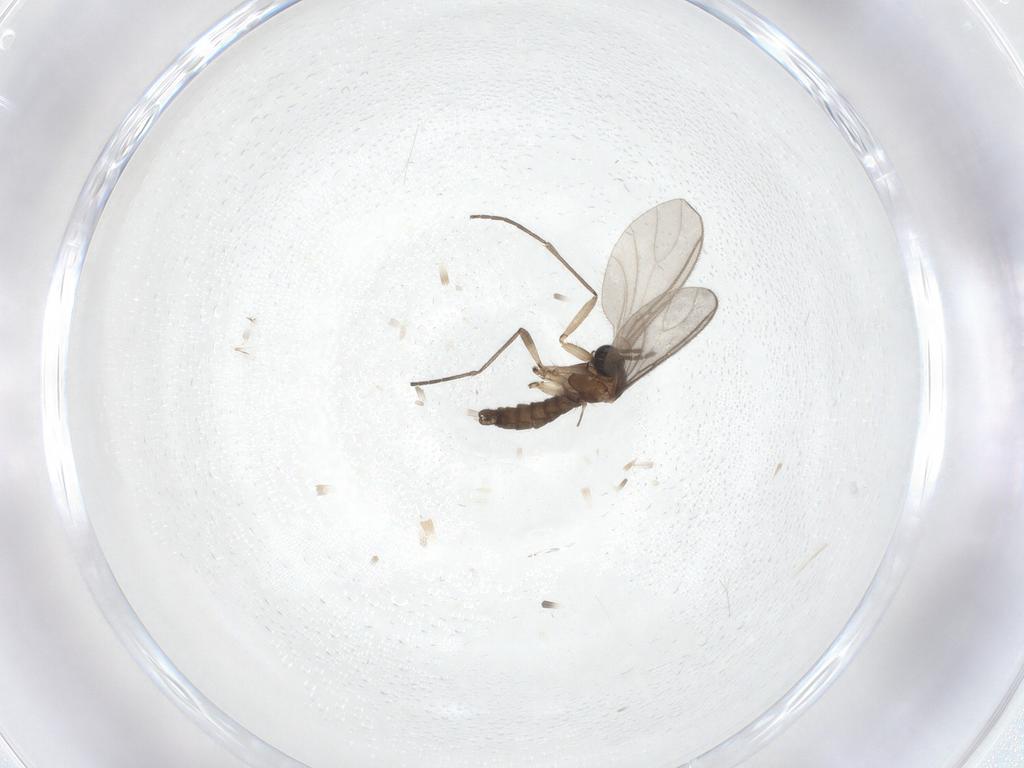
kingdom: Animalia
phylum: Arthropoda
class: Insecta
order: Diptera
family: Sciaridae
